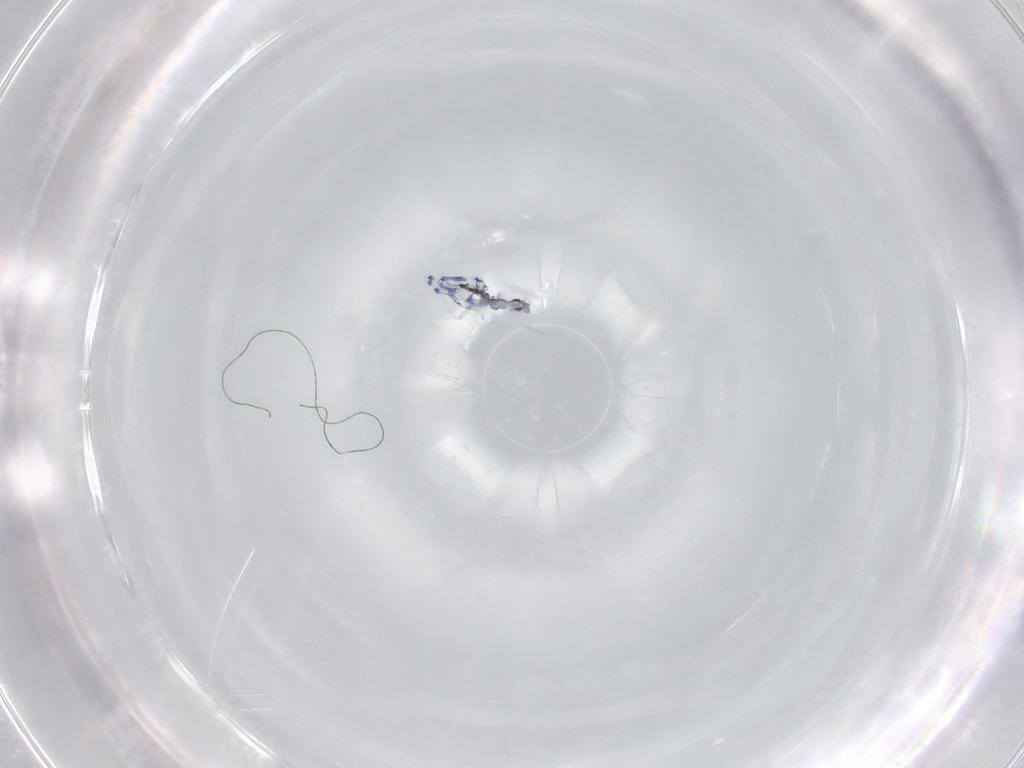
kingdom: Animalia
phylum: Arthropoda
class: Collembola
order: Entomobryomorpha
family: Entomobryidae
